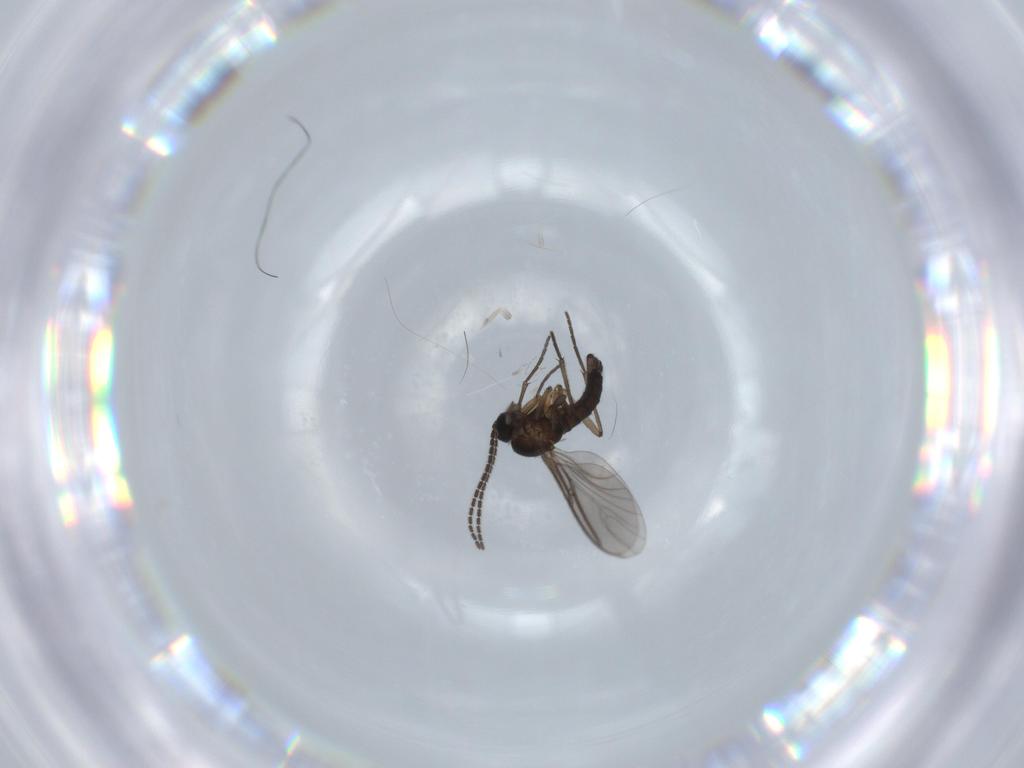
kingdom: Animalia
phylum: Arthropoda
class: Insecta
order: Diptera
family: Sciaridae
